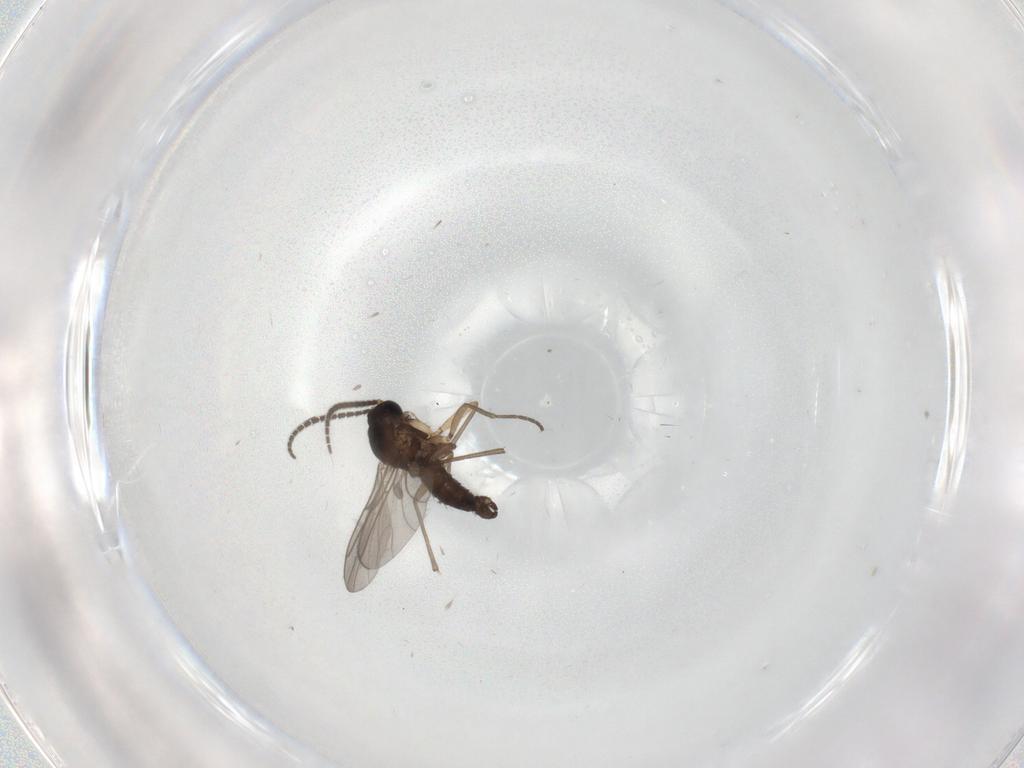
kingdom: Animalia
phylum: Arthropoda
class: Insecta
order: Diptera
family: Sciaridae
